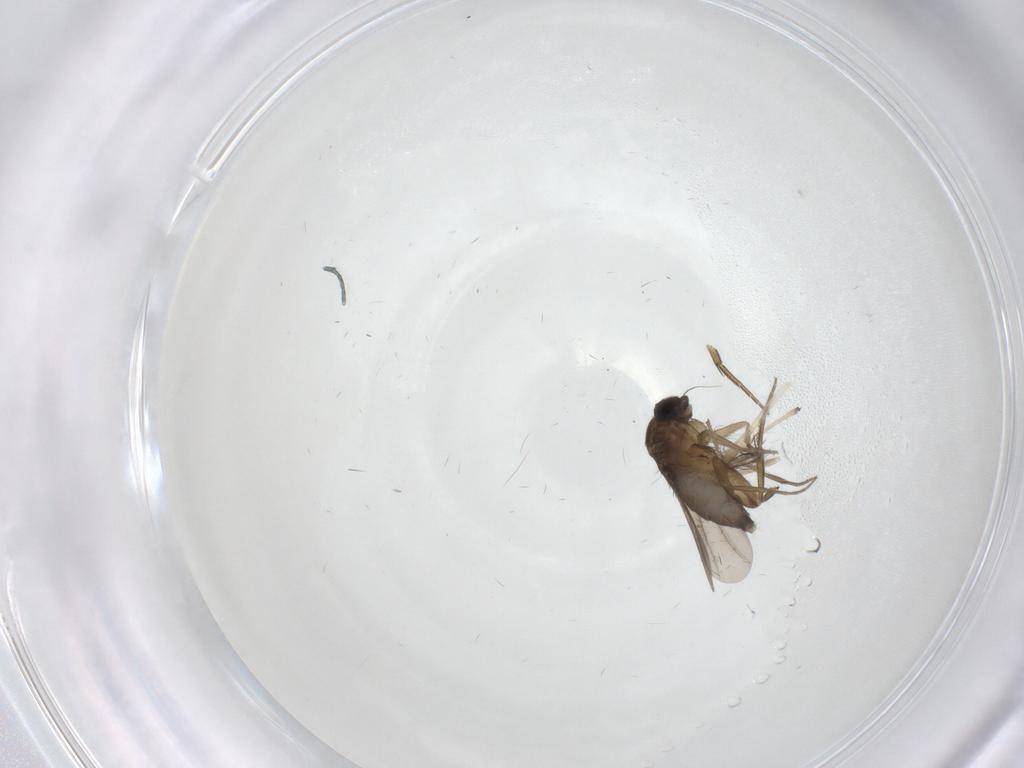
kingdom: Animalia
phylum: Arthropoda
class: Insecta
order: Diptera
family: Phoridae
